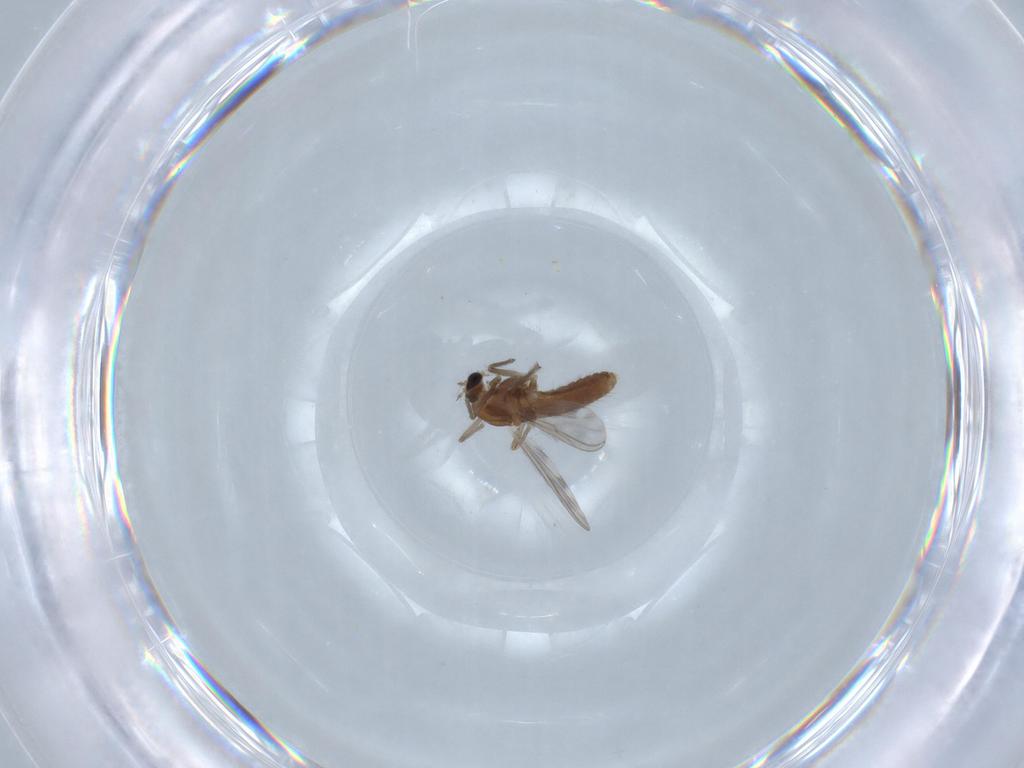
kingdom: Animalia
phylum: Arthropoda
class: Insecta
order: Diptera
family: Chironomidae
